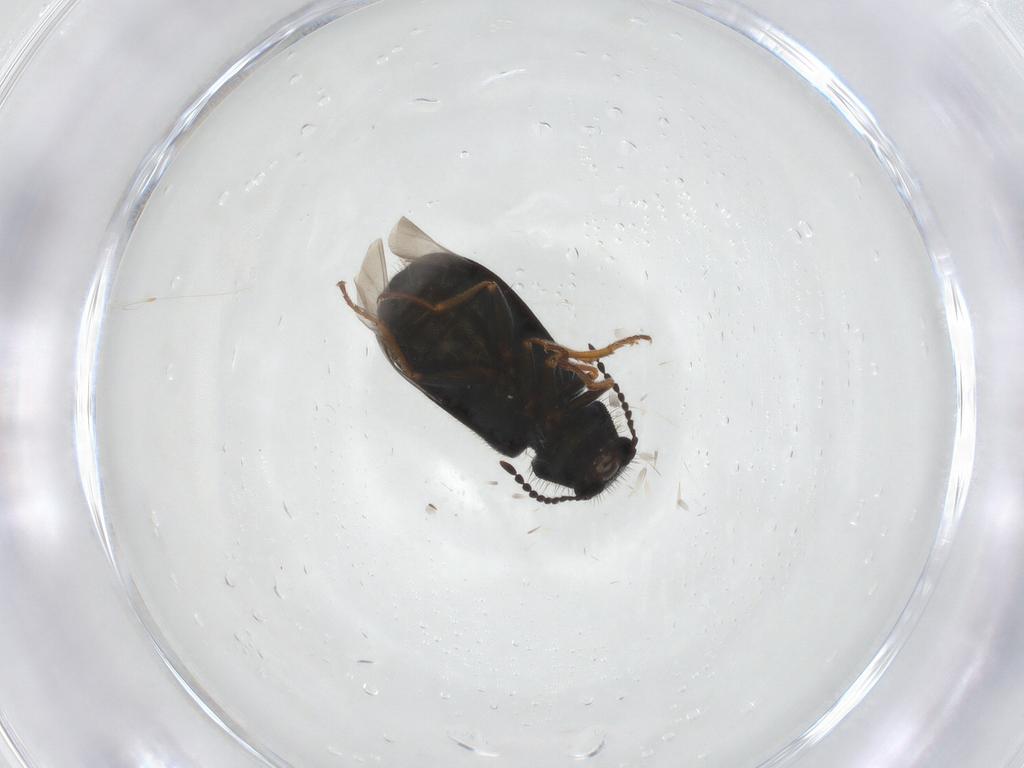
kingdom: Animalia
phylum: Arthropoda
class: Insecta
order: Coleoptera
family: Melyridae
